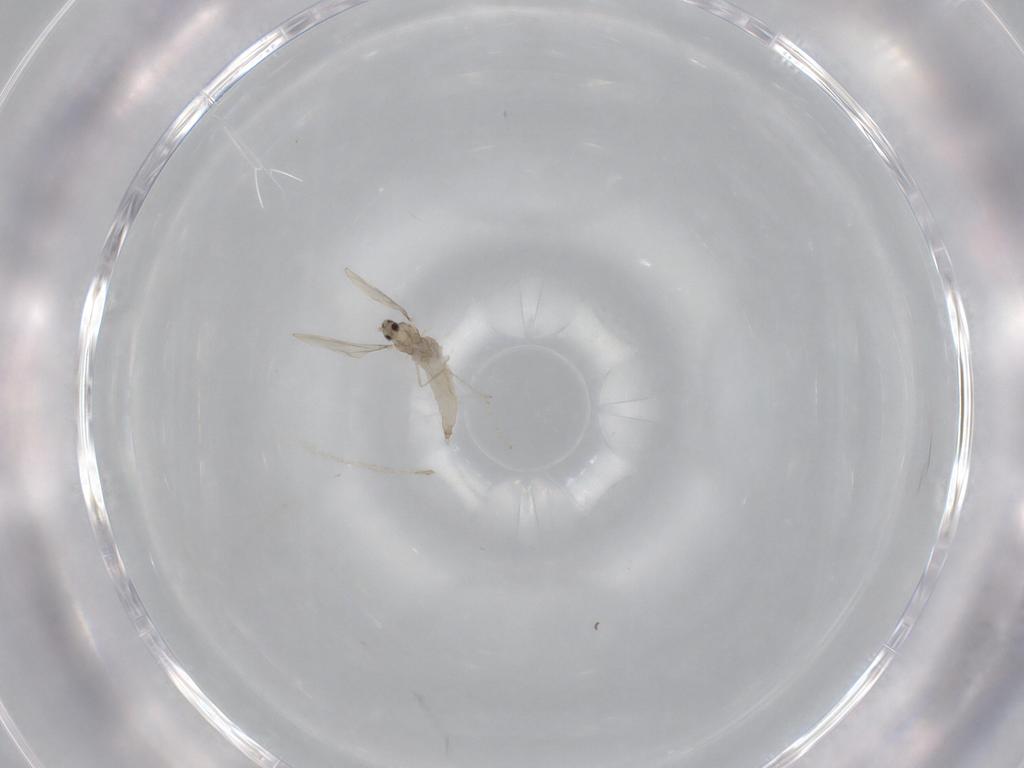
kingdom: Animalia
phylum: Arthropoda
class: Insecta
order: Diptera
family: Cecidomyiidae
